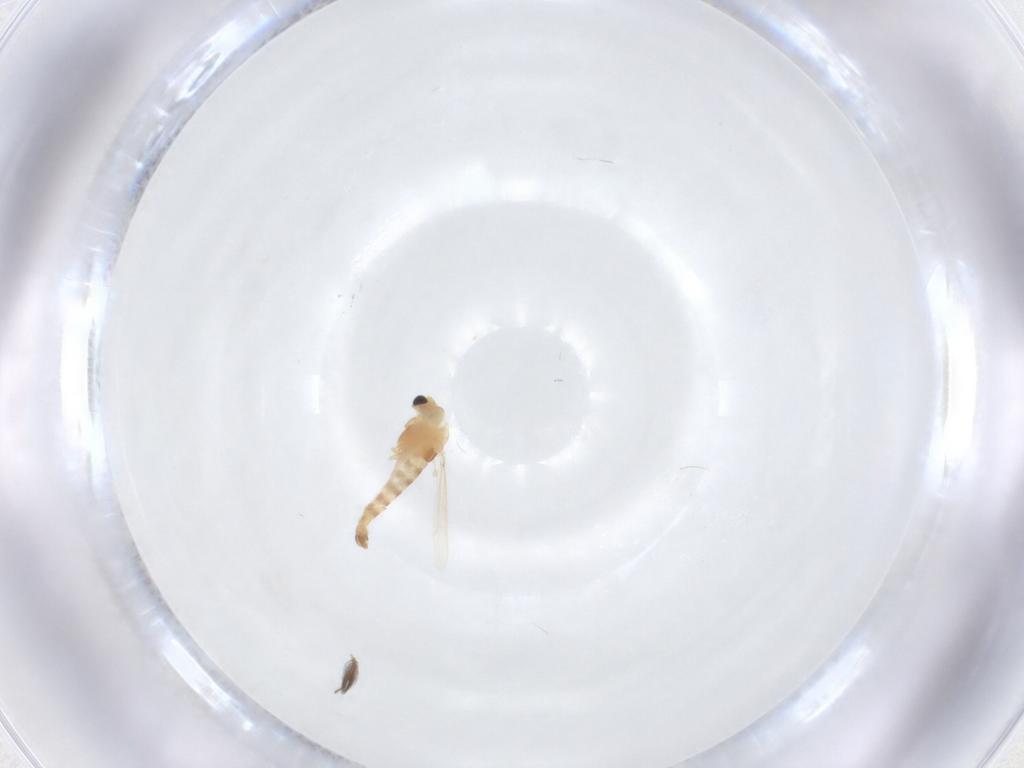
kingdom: Animalia
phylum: Arthropoda
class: Insecta
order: Diptera
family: Chironomidae
